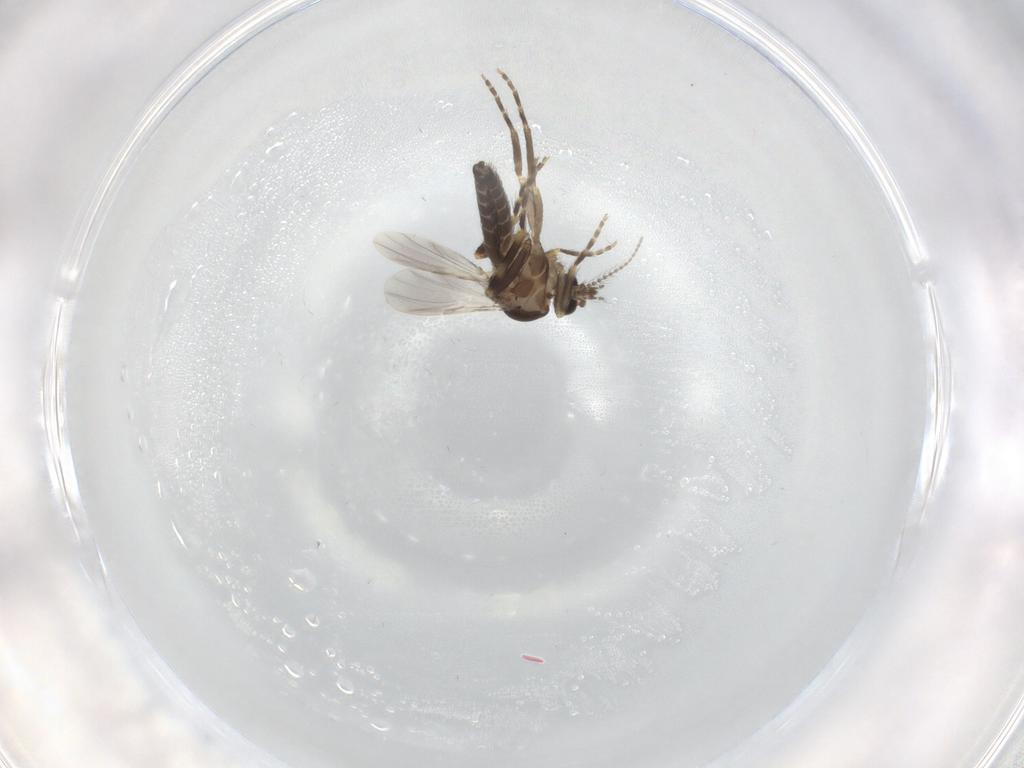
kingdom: Animalia
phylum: Arthropoda
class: Insecta
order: Diptera
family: Ceratopogonidae
